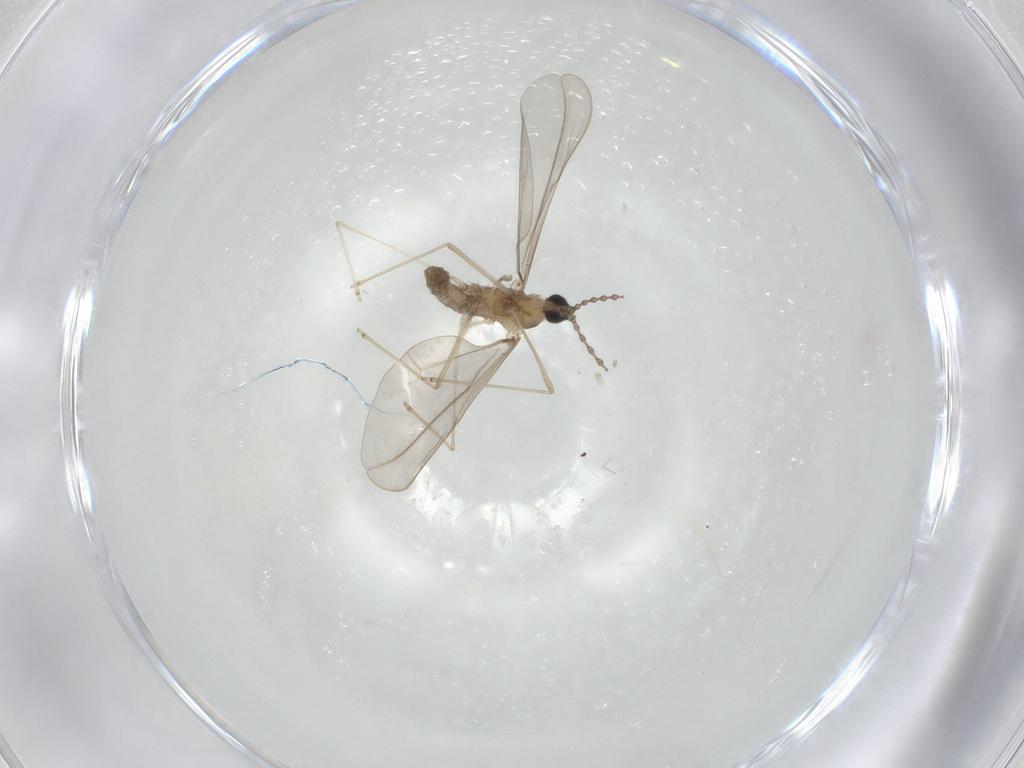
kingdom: Animalia
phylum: Arthropoda
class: Insecta
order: Diptera
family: Cecidomyiidae
